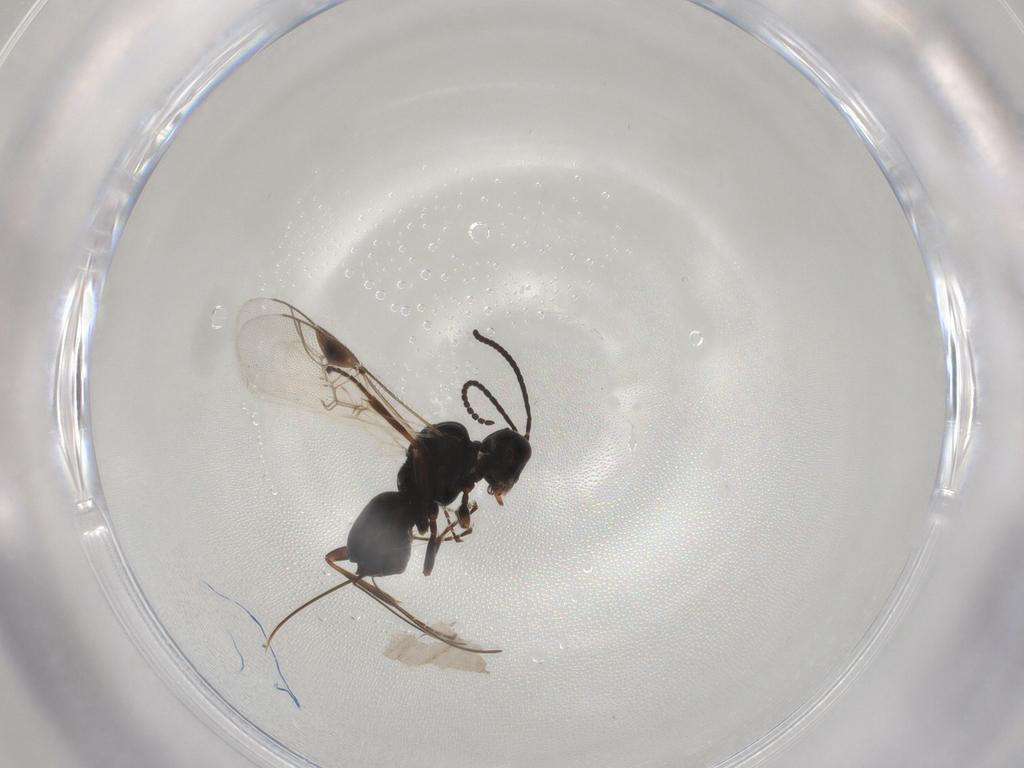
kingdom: Animalia
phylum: Arthropoda
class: Insecta
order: Hymenoptera
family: Braconidae
